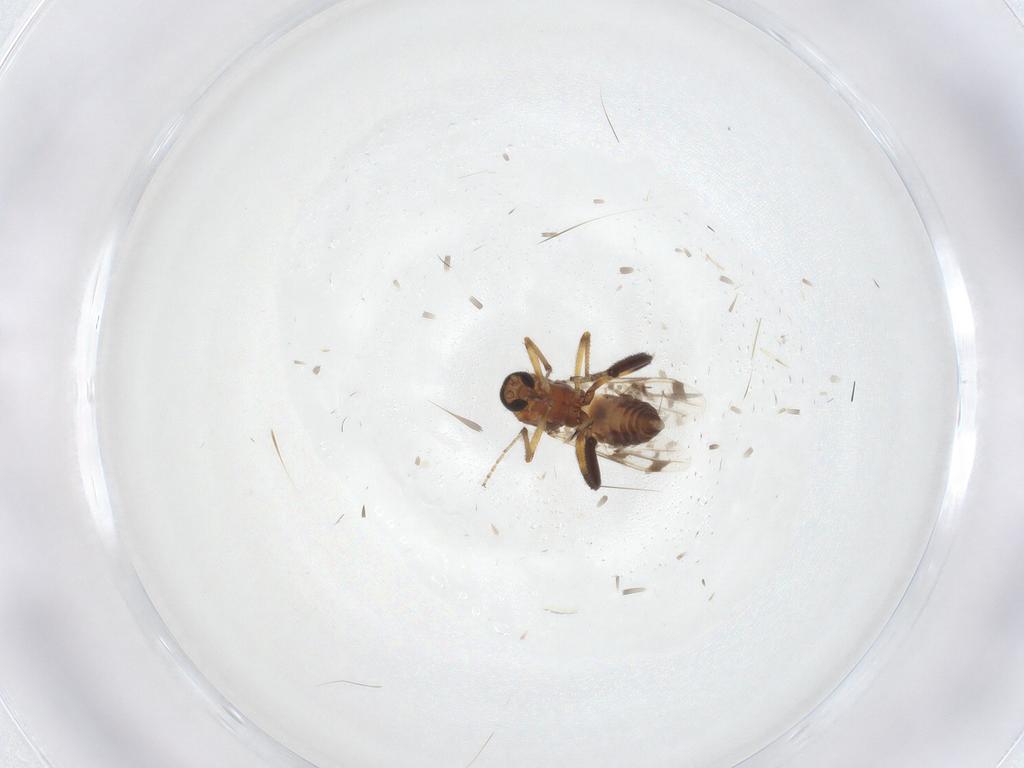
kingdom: Animalia
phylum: Arthropoda
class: Insecta
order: Diptera
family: Ceratopogonidae
